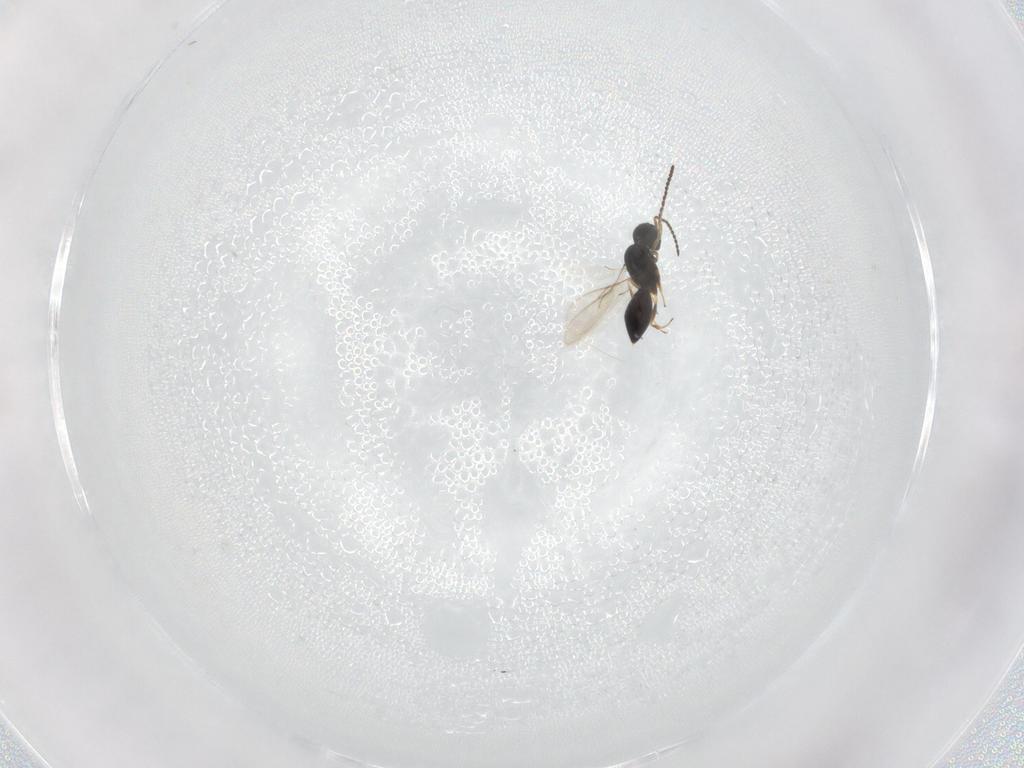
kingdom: Animalia
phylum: Arthropoda
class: Insecta
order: Hymenoptera
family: Scelionidae
